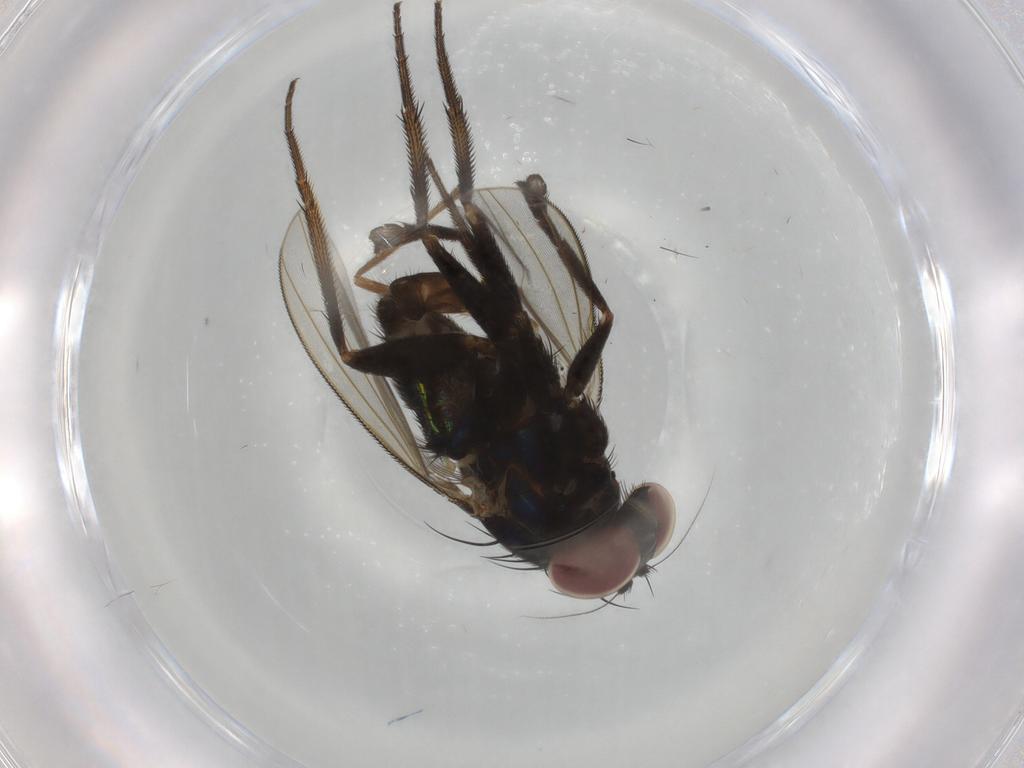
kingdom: Animalia
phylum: Arthropoda
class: Insecta
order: Diptera
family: Dolichopodidae
